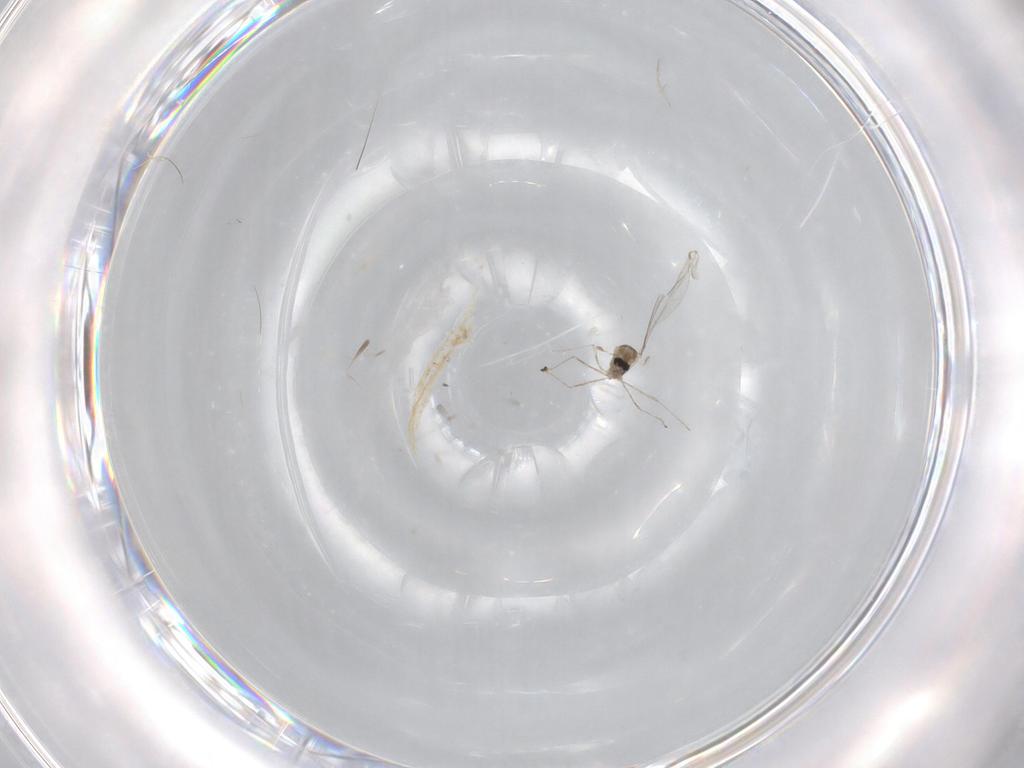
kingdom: Animalia
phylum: Arthropoda
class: Insecta
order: Diptera
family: Cecidomyiidae
